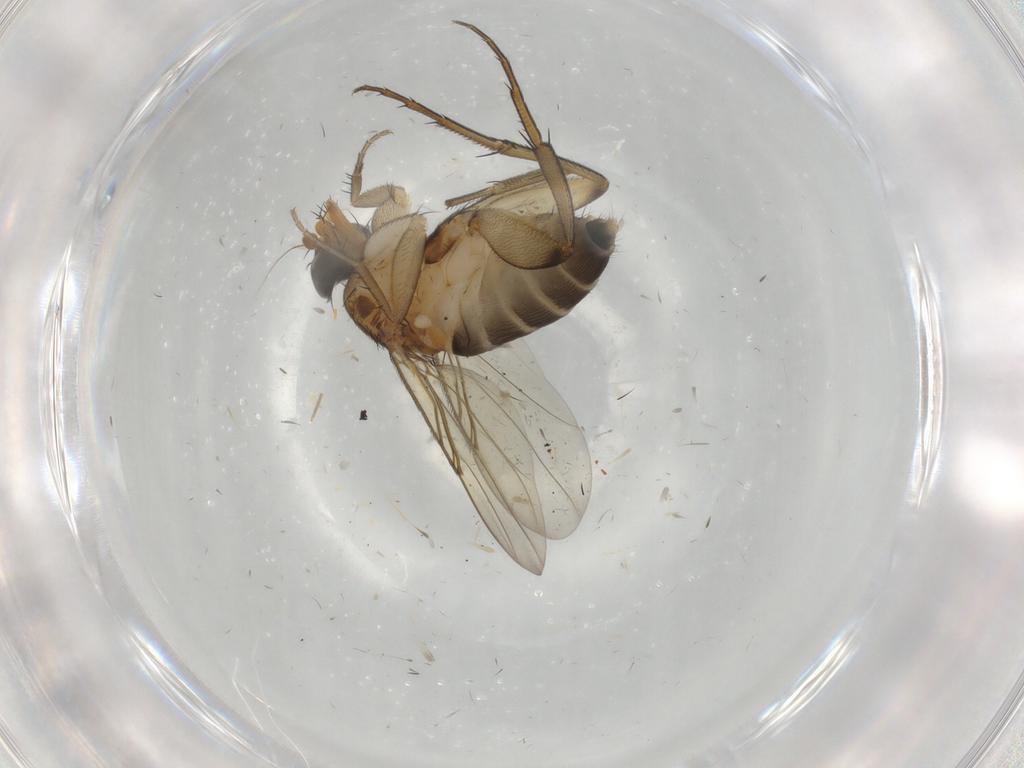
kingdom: Animalia
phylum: Arthropoda
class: Insecta
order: Diptera
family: Phoridae
